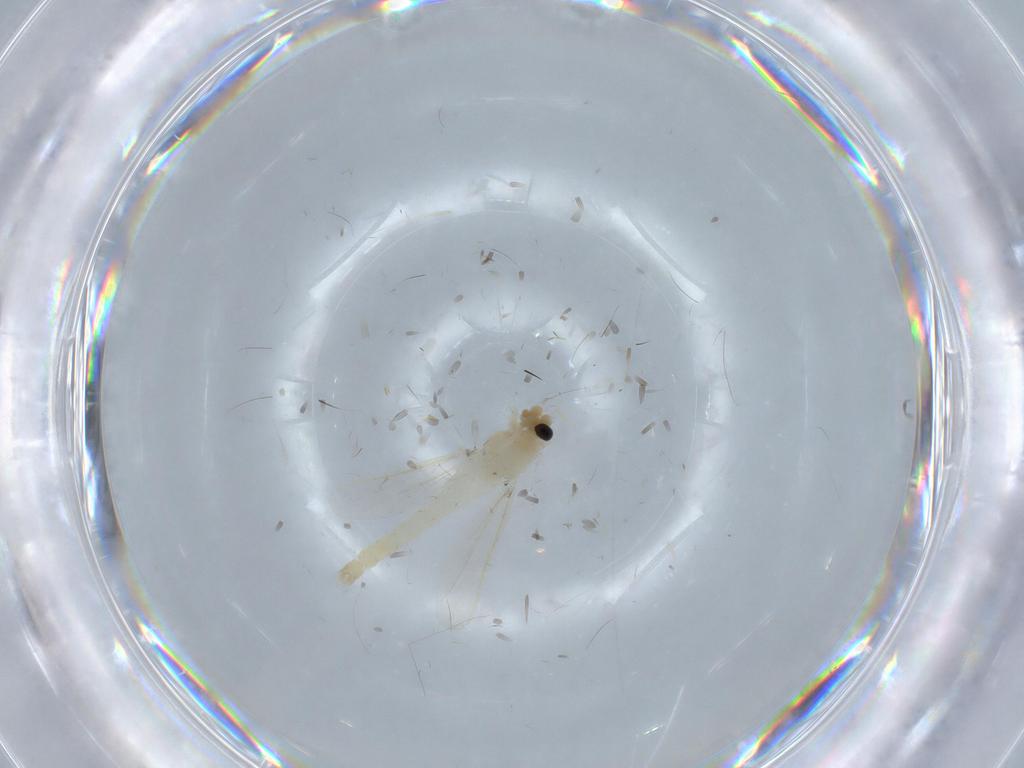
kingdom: Animalia
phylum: Arthropoda
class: Insecta
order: Diptera
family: Chironomidae
